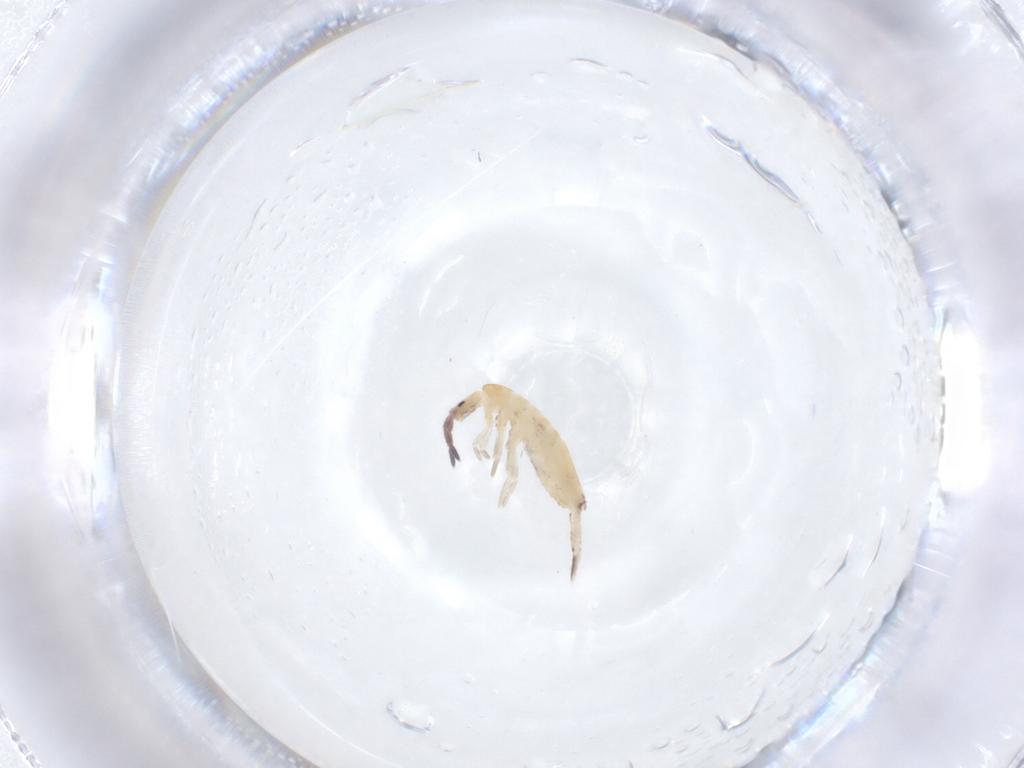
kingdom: Animalia
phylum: Arthropoda
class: Collembola
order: Entomobryomorpha
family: Entomobryidae
